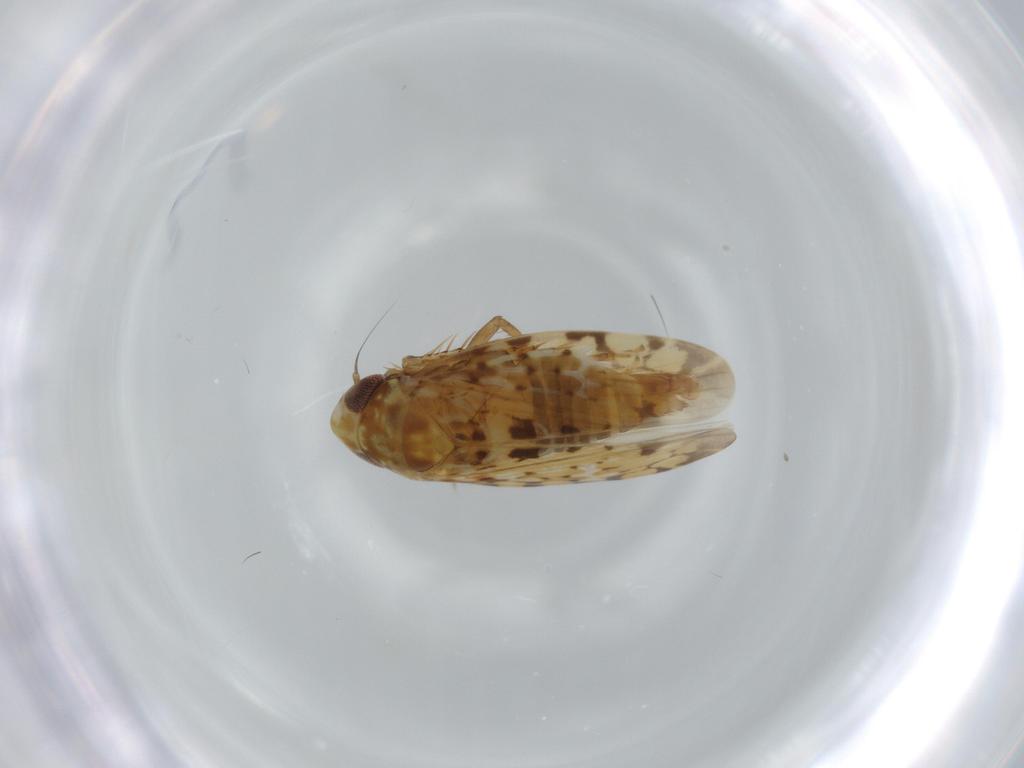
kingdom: Animalia
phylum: Arthropoda
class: Insecta
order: Hemiptera
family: Cicadellidae
